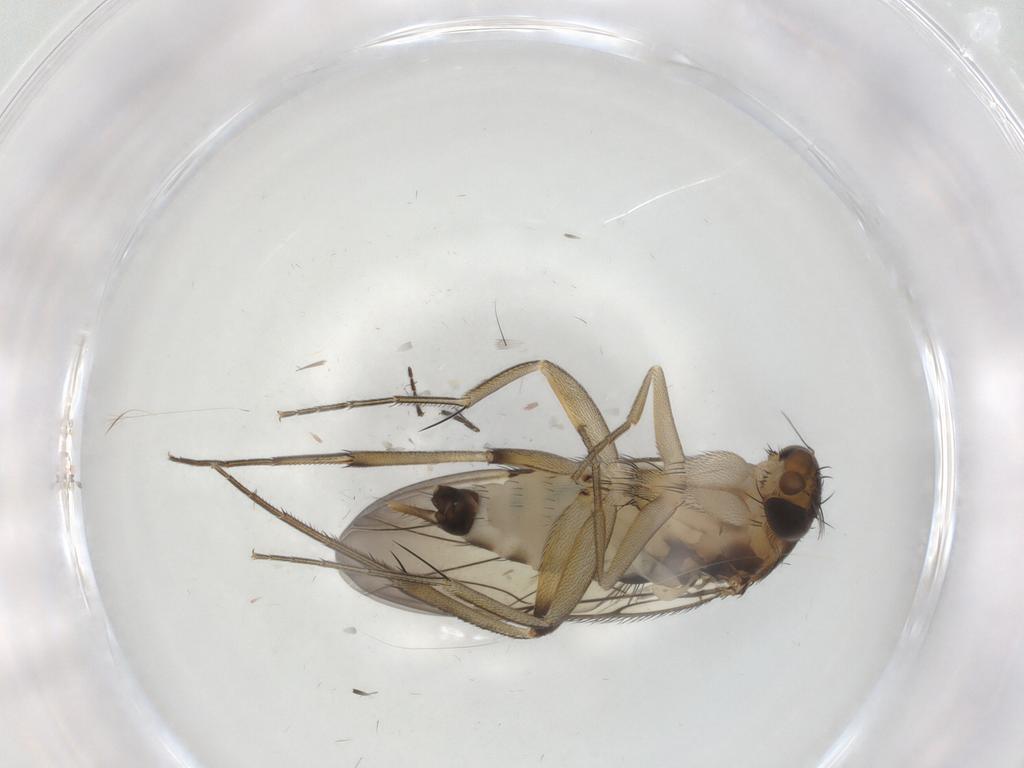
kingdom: Animalia
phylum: Arthropoda
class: Insecta
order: Diptera
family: Phoridae
